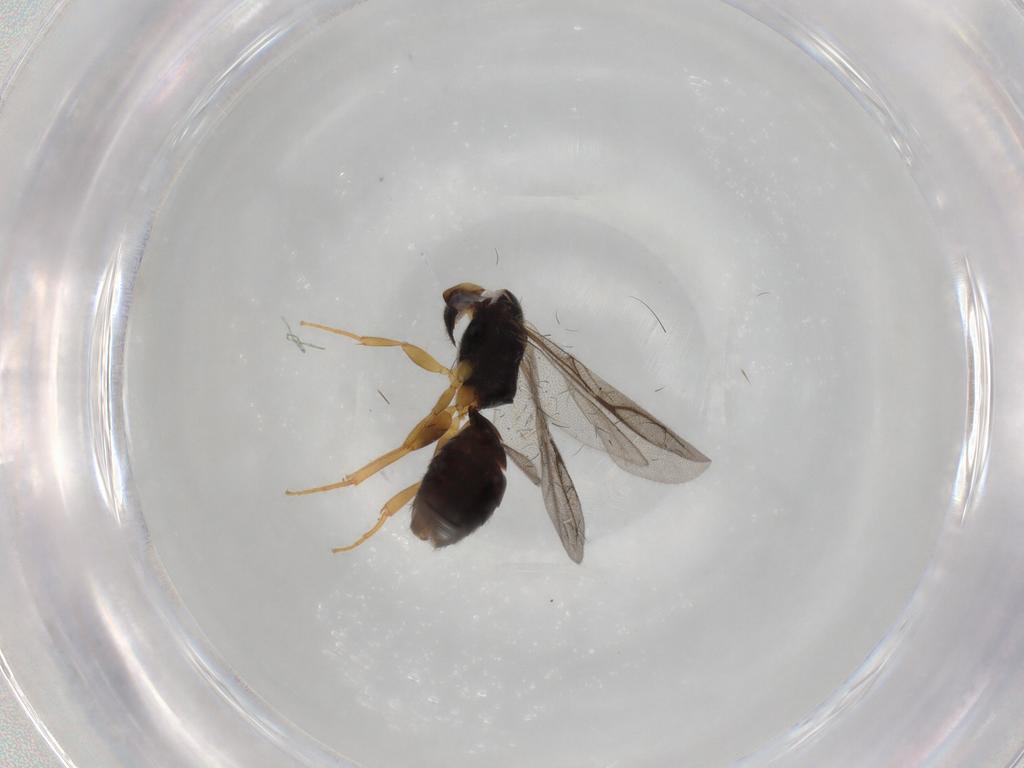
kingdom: Animalia
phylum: Arthropoda
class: Insecta
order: Hymenoptera
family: Bethylidae
